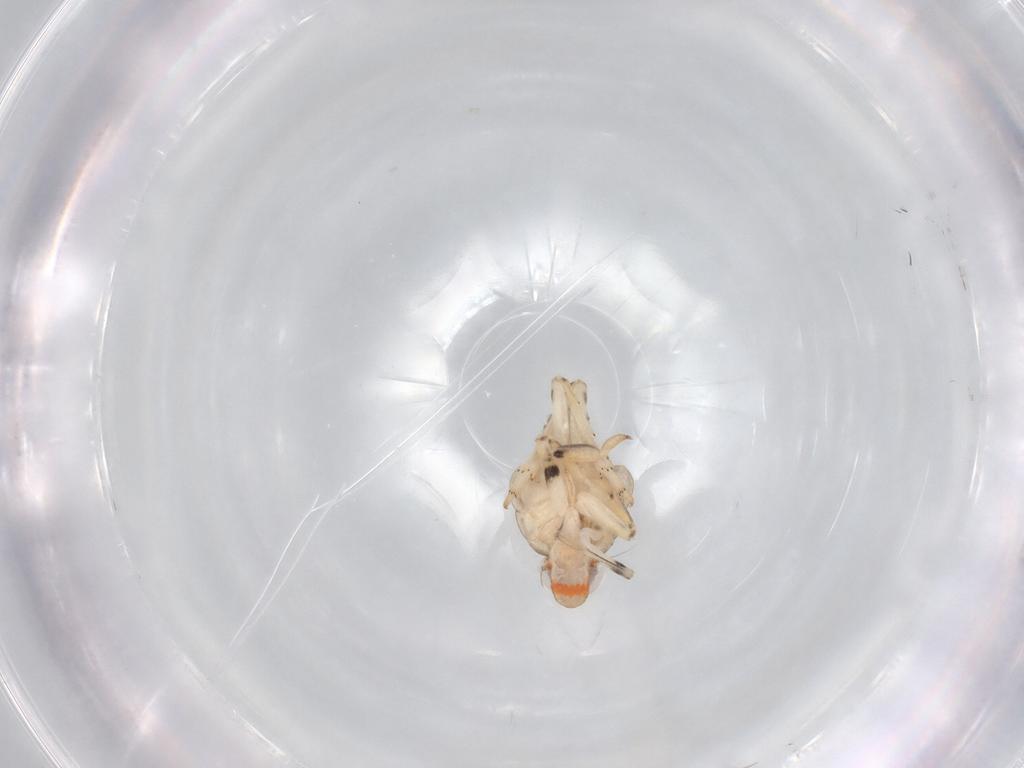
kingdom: Animalia
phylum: Arthropoda
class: Insecta
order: Hemiptera
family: Issidae
